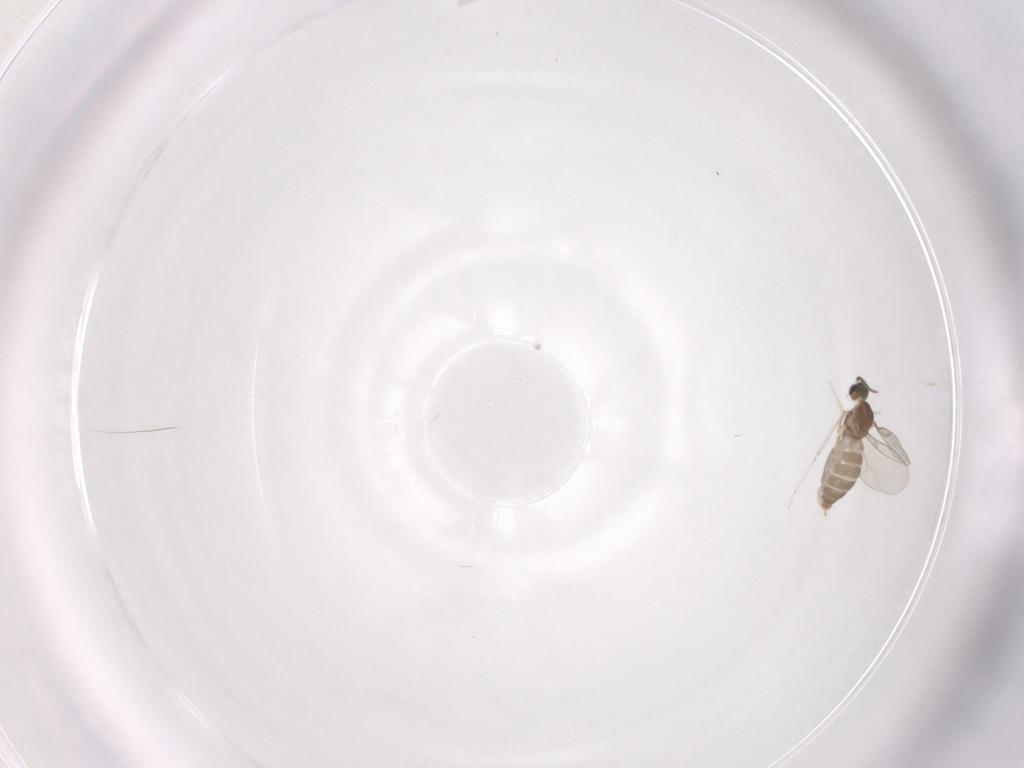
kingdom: Animalia
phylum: Arthropoda
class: Insecta
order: Diptera
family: Cecidomyiidae
